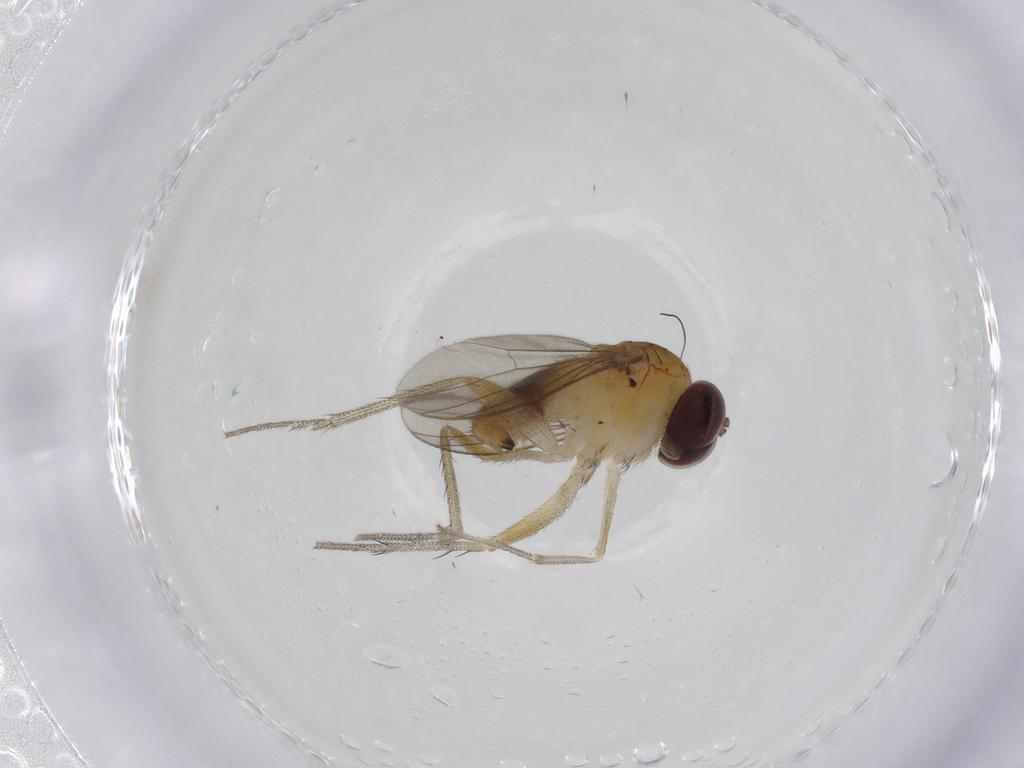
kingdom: Animalia
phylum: Arthropoda
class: Insecta
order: Diptera
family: Dolichopodidae
